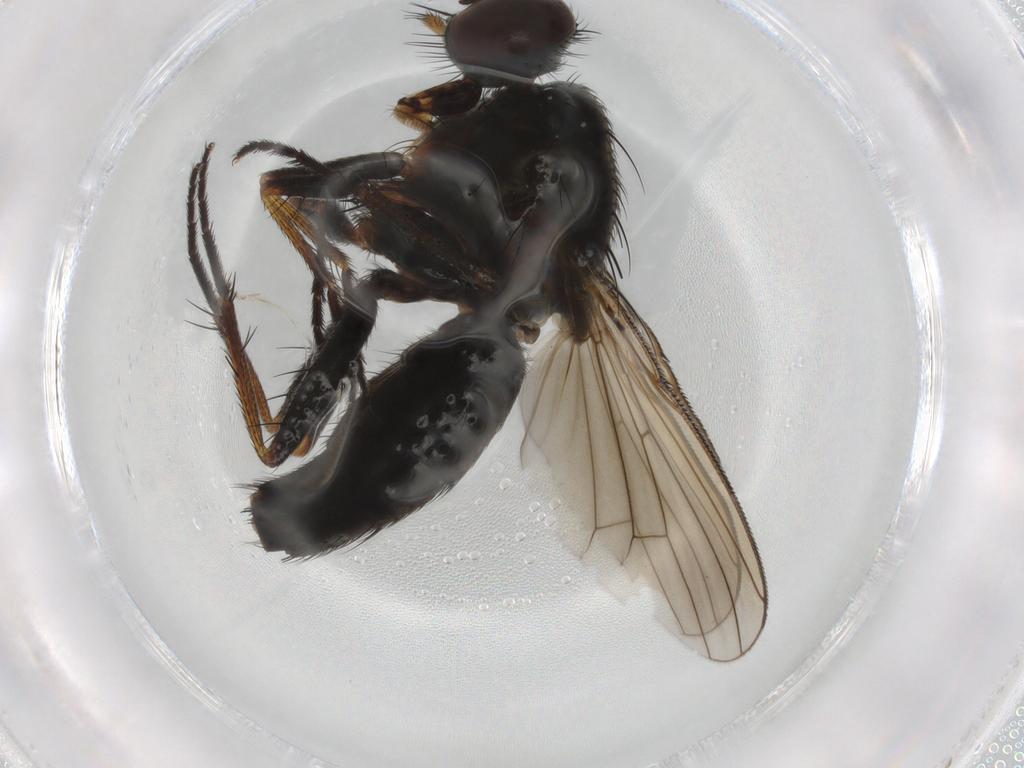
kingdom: Animalia
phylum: Arthropoda
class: Insecta
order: Diptera
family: Muscidae
